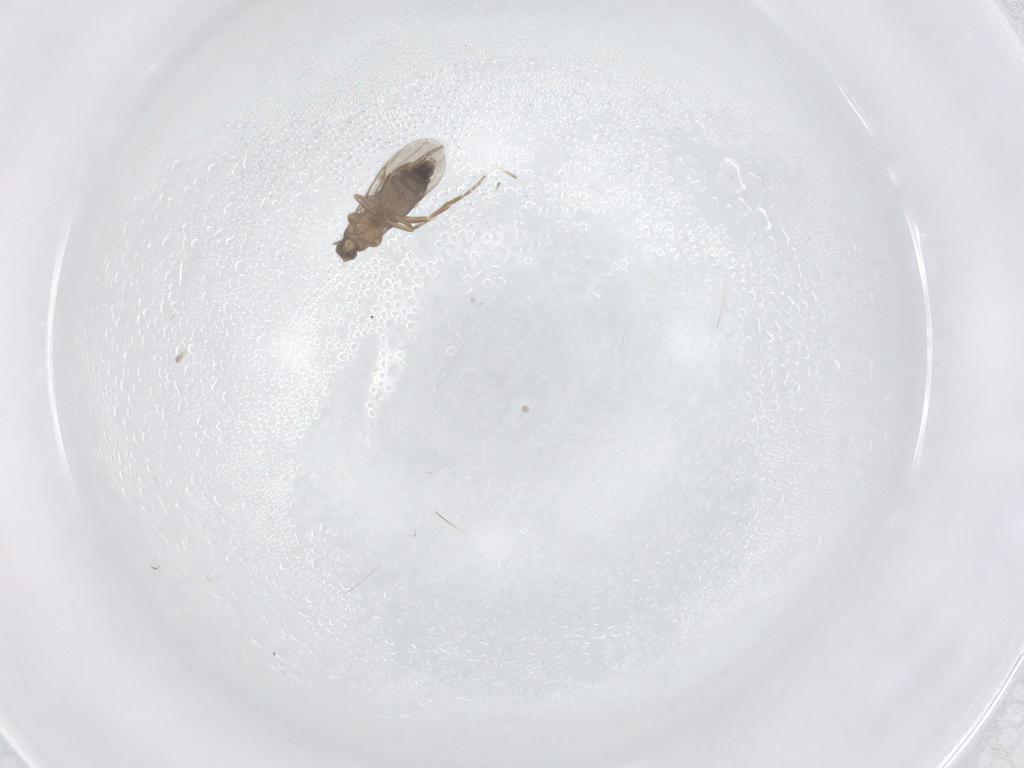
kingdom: Animalia
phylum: Arthropoda
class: Insecta
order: Diptera
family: Phoridae
